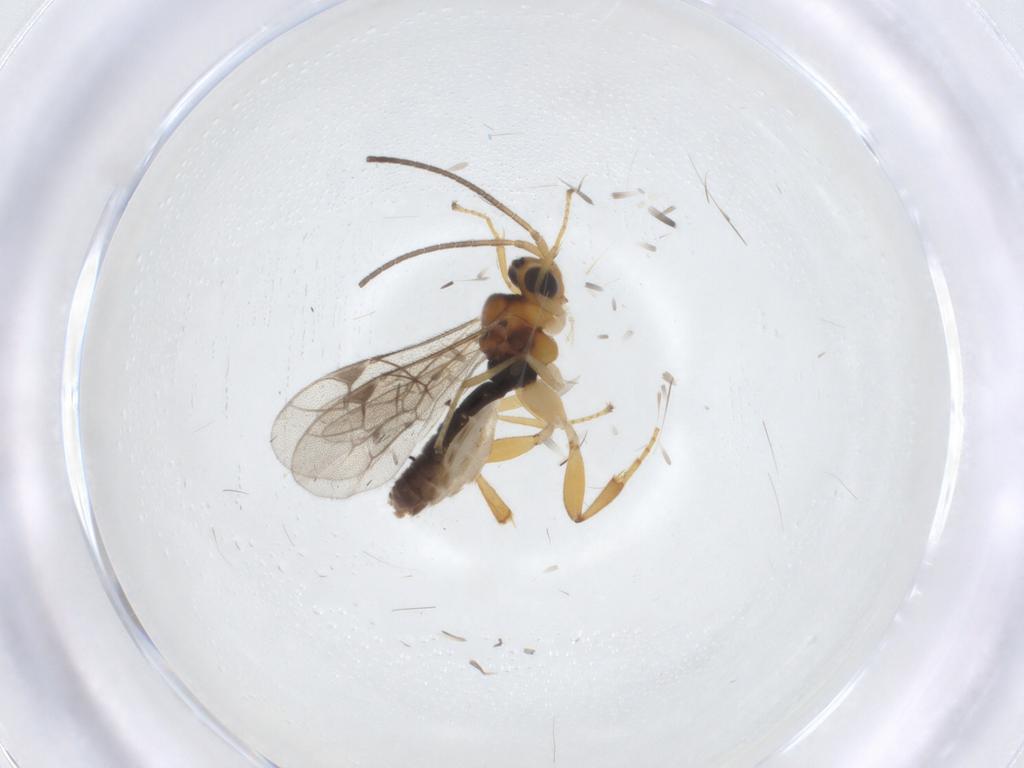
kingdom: Animalia
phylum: Arthropoda
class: Insecta
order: Hymenoptera
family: Ichneumonidae
